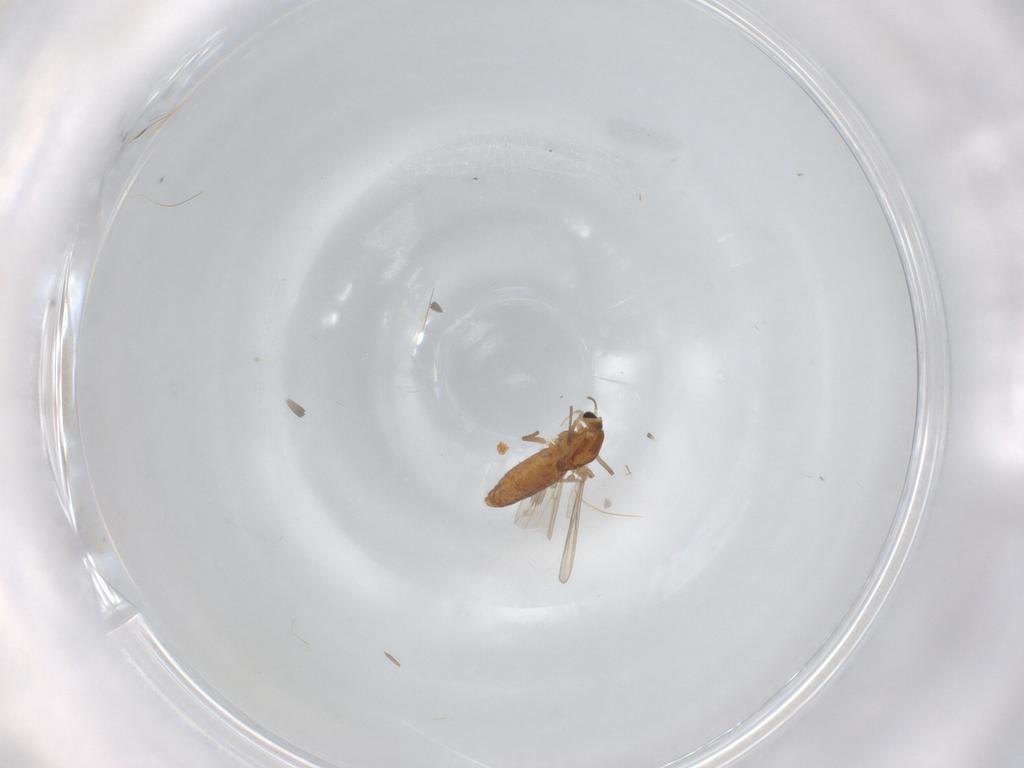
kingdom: Animalia
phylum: Arthropoda
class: Insecta
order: Diptera
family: Chironomidae
